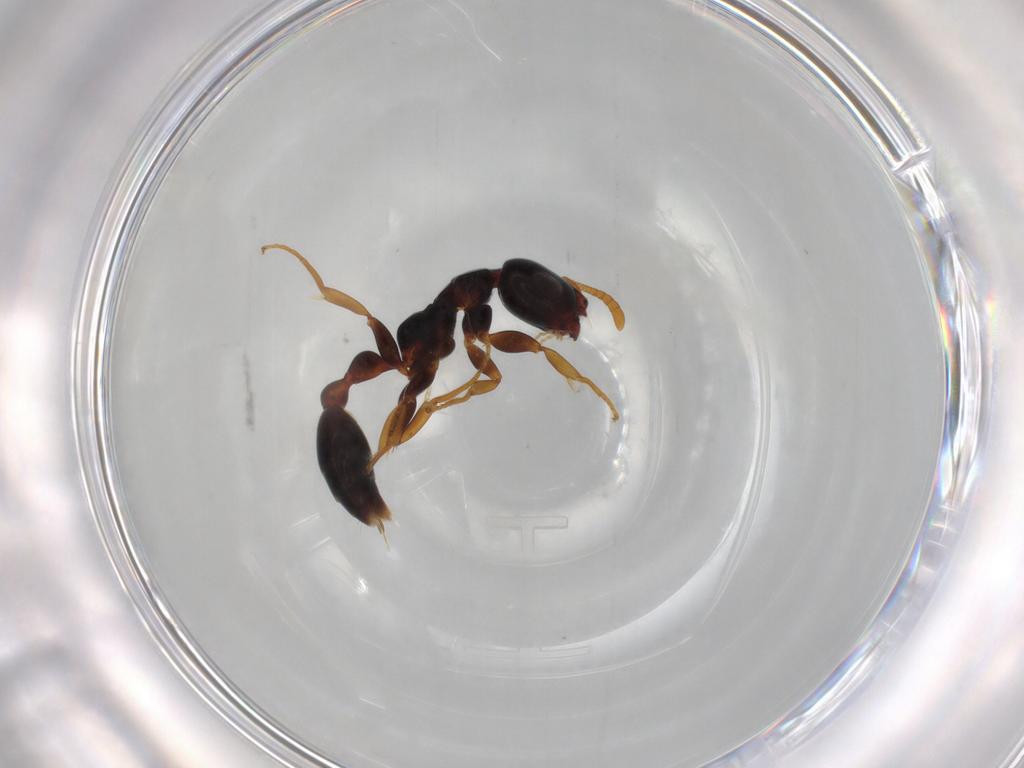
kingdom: Animalia
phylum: Arthropoda
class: Insecta
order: Hymenoptera
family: Formicidae
